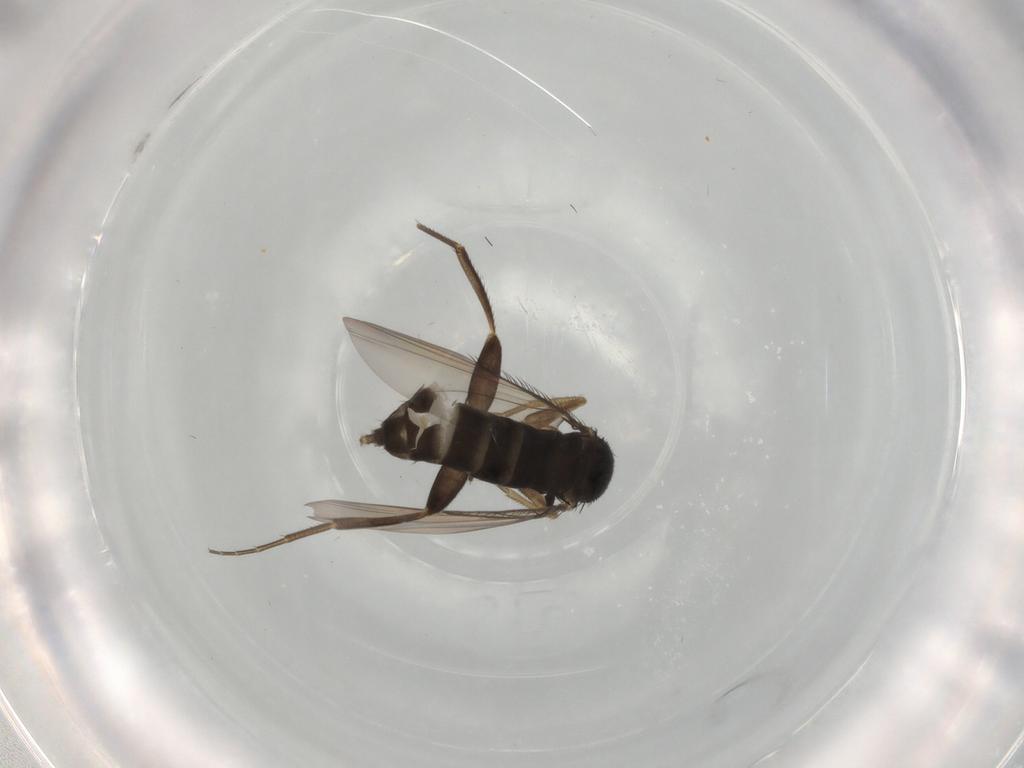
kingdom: Animalia
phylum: Arthropoda
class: Insecta
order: Diptera
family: Phoridae
